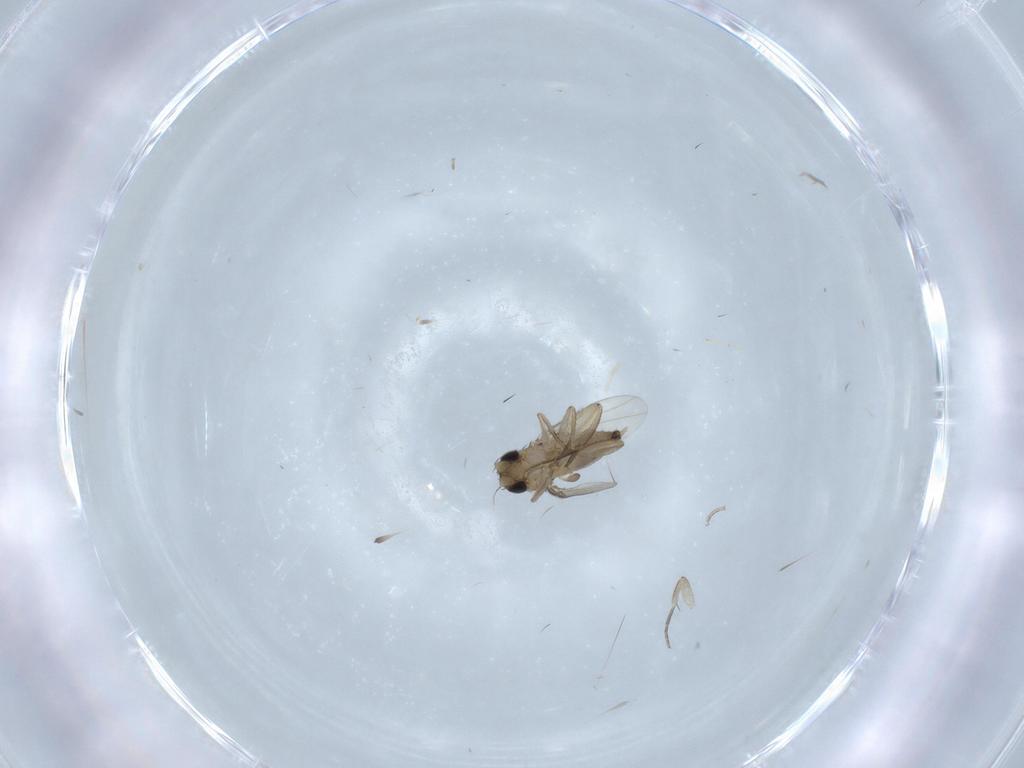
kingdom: Animalia
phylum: Arthropoda
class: Insecta
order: Diptera
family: Phoridae
